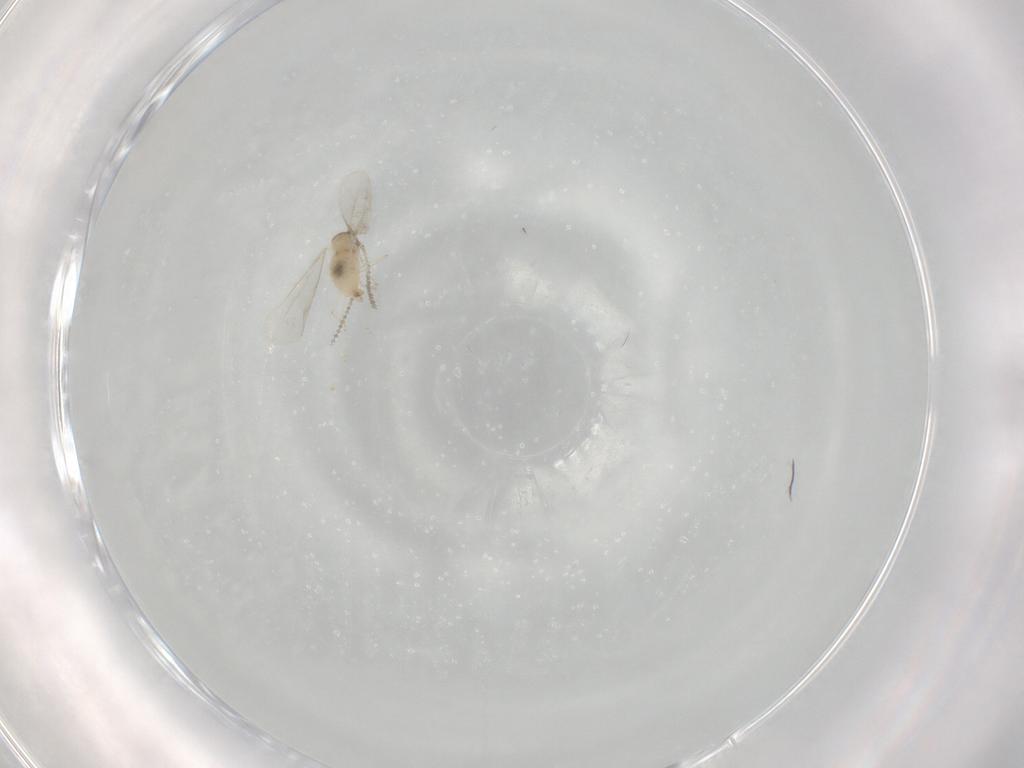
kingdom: Animalia
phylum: Arthropoda
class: Insecta
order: Diptera
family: Cecidomyiidae
